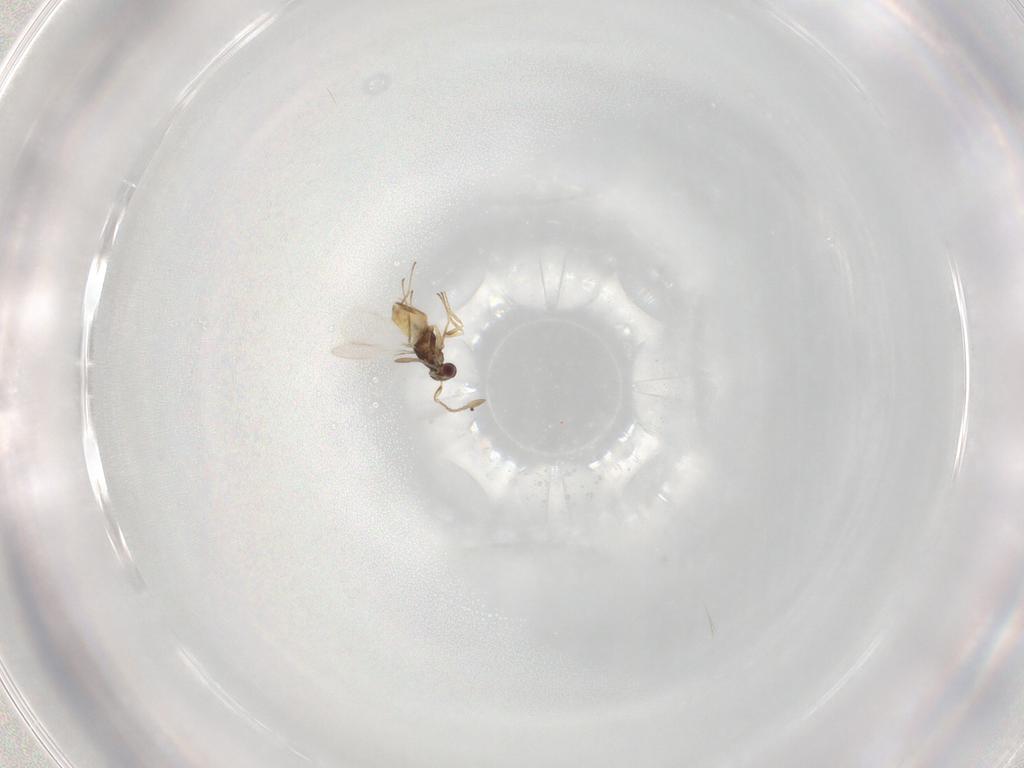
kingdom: Animalia
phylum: Arthropoda
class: Insecta
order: Hymenoptera
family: Mymaridae
